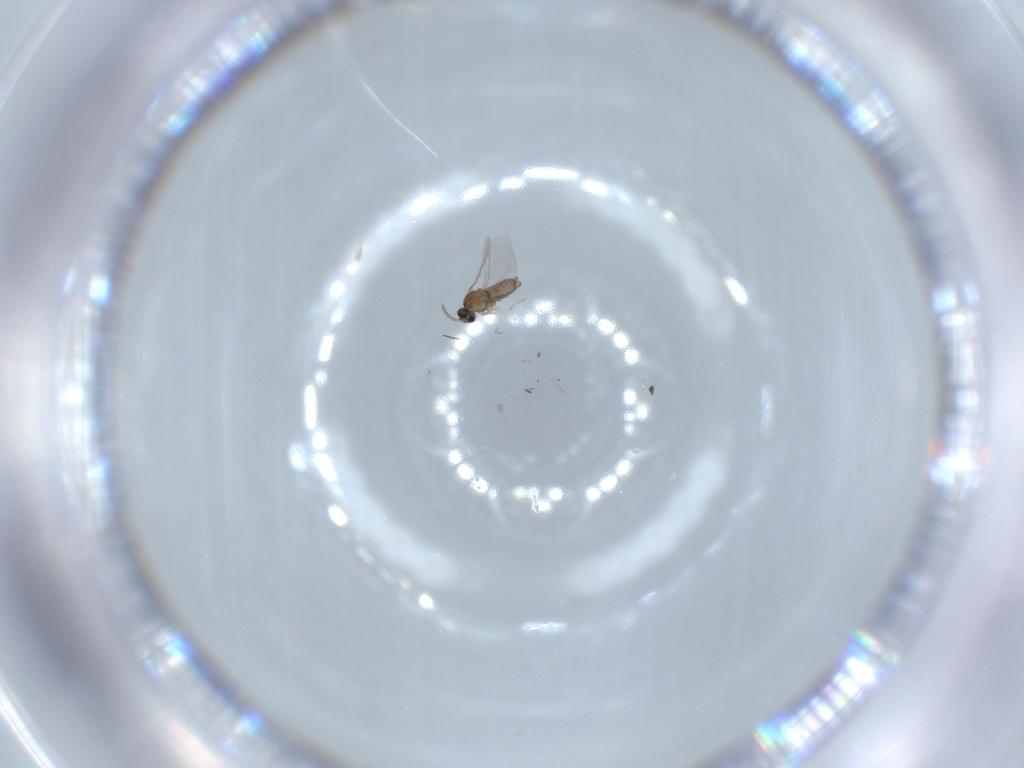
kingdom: Animalia
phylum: Arthropoda
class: Insecta
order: Diptera
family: Cecidomyiidae
